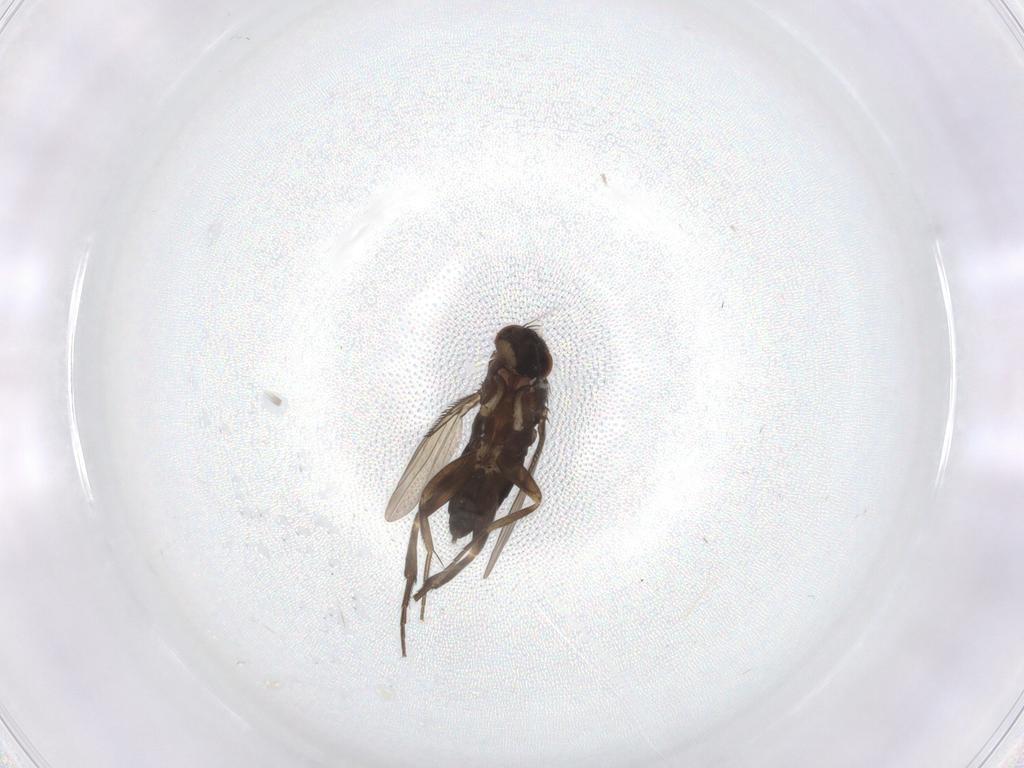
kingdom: Animalia
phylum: Arthropoda
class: Insecta
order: Diptera
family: Phoridae
